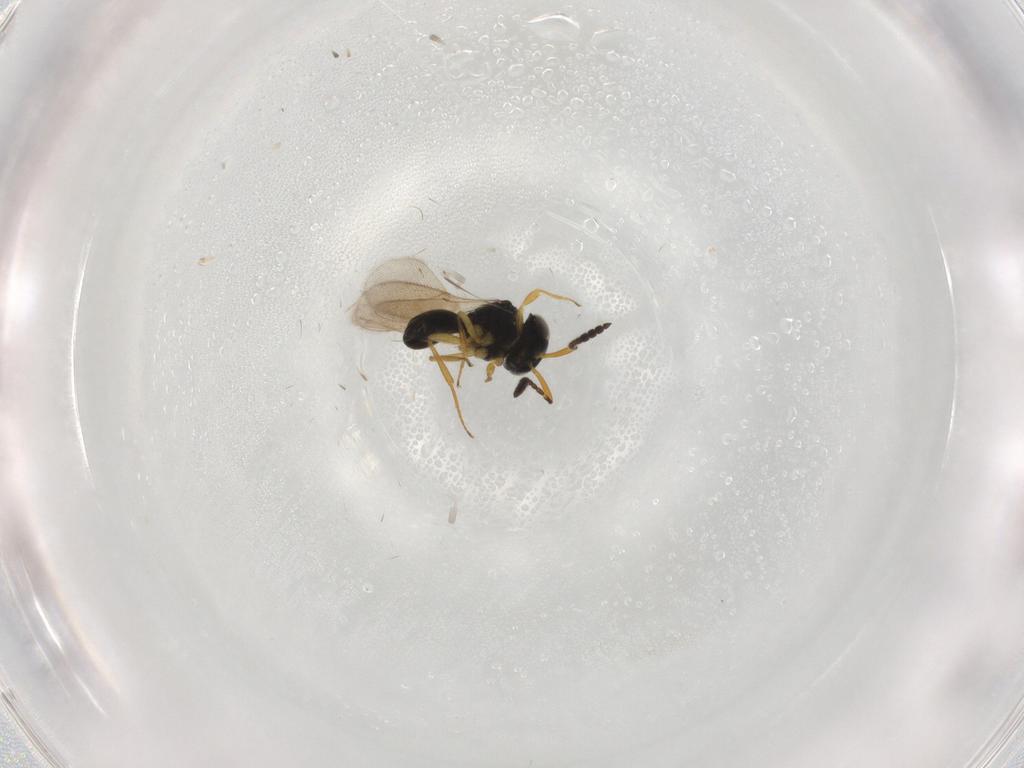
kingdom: Animalia
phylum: Arthropoda
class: Insecta
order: Hymenoptera
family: Scelionidae
